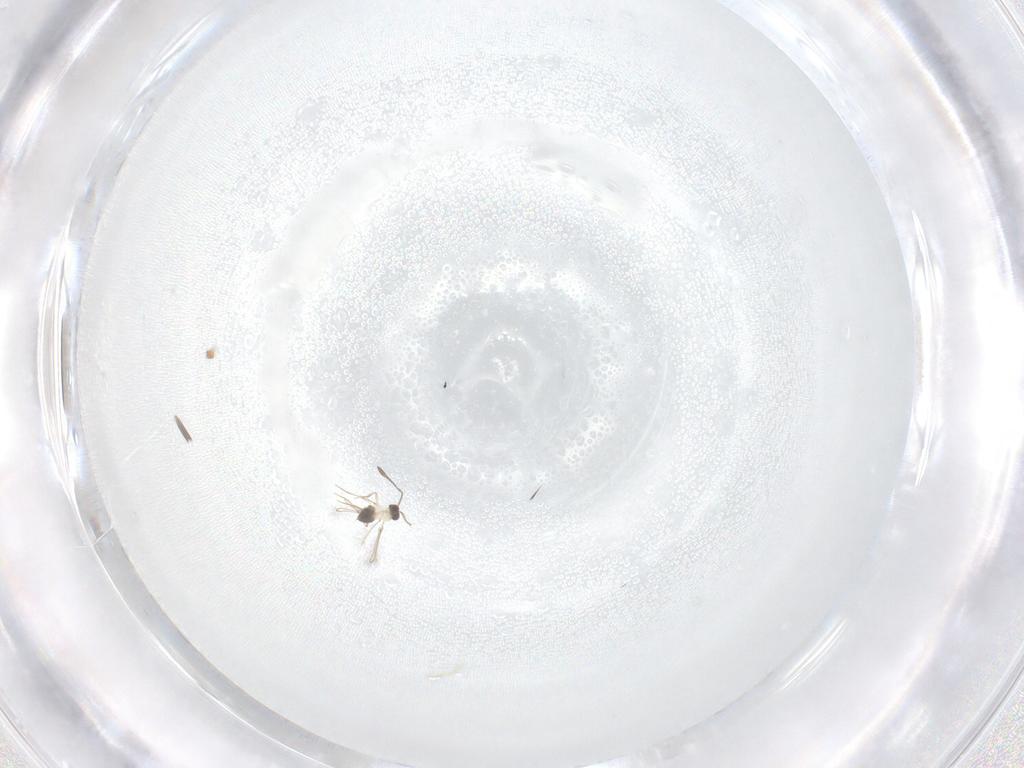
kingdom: Animalia
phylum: Arthropoda
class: Insecta
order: Hymenoptera
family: Mymaridae
